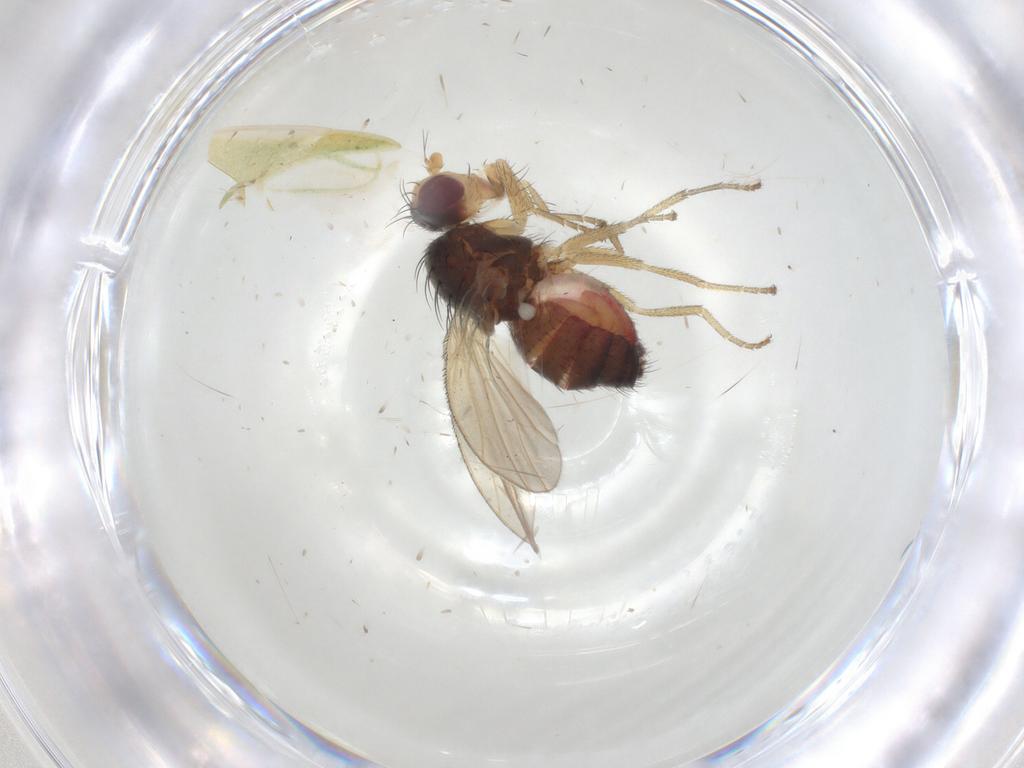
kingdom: Animalia
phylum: Arthropoda
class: Insecta
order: Diptera
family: Heleomyzidae
